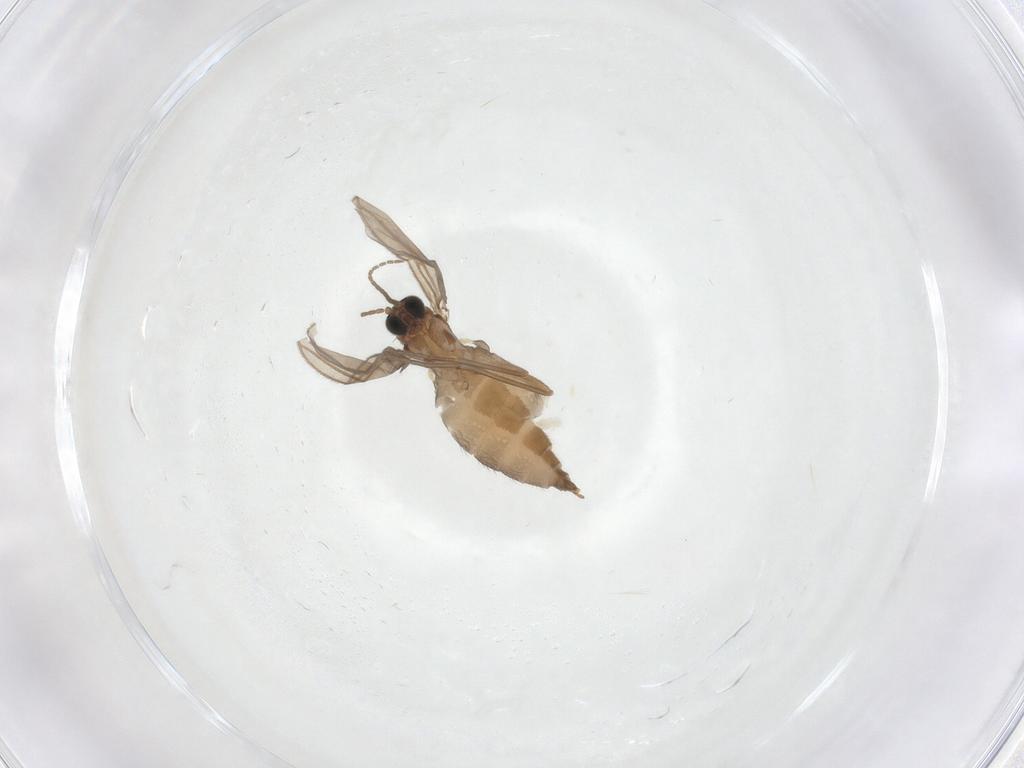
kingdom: Animalia
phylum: Arthropoda
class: Insecta
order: Diptera
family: Sciaridae
